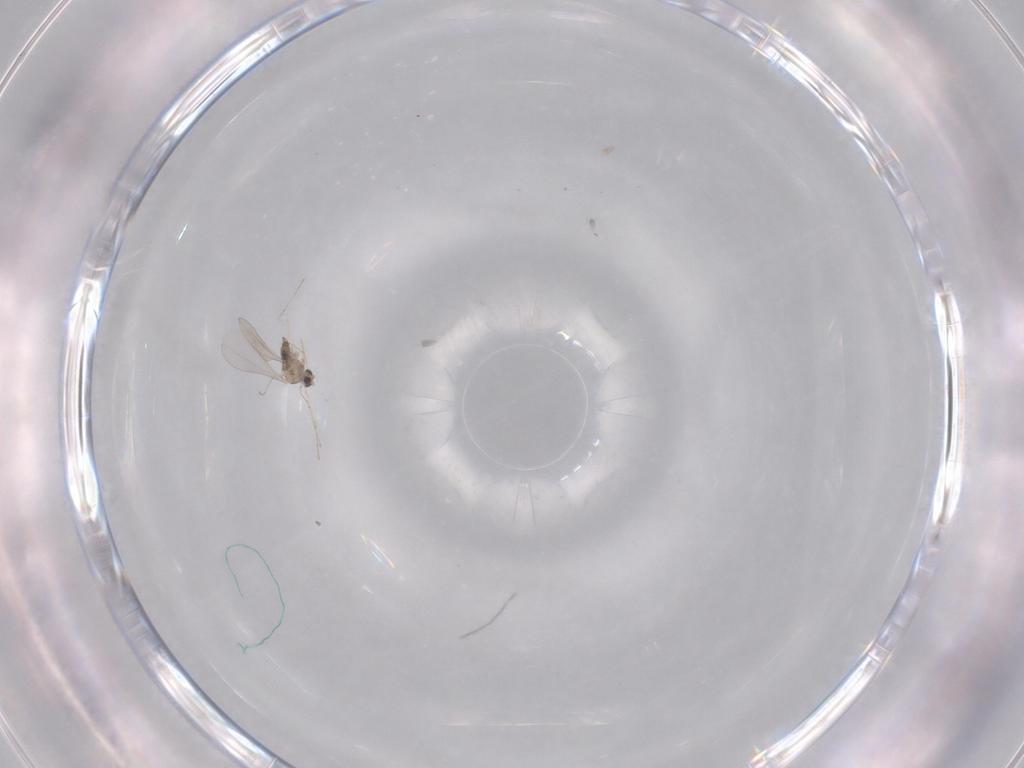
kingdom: Animalia
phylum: Arthropoda
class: Insecta
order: Diptera
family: Cecidomyiidae
